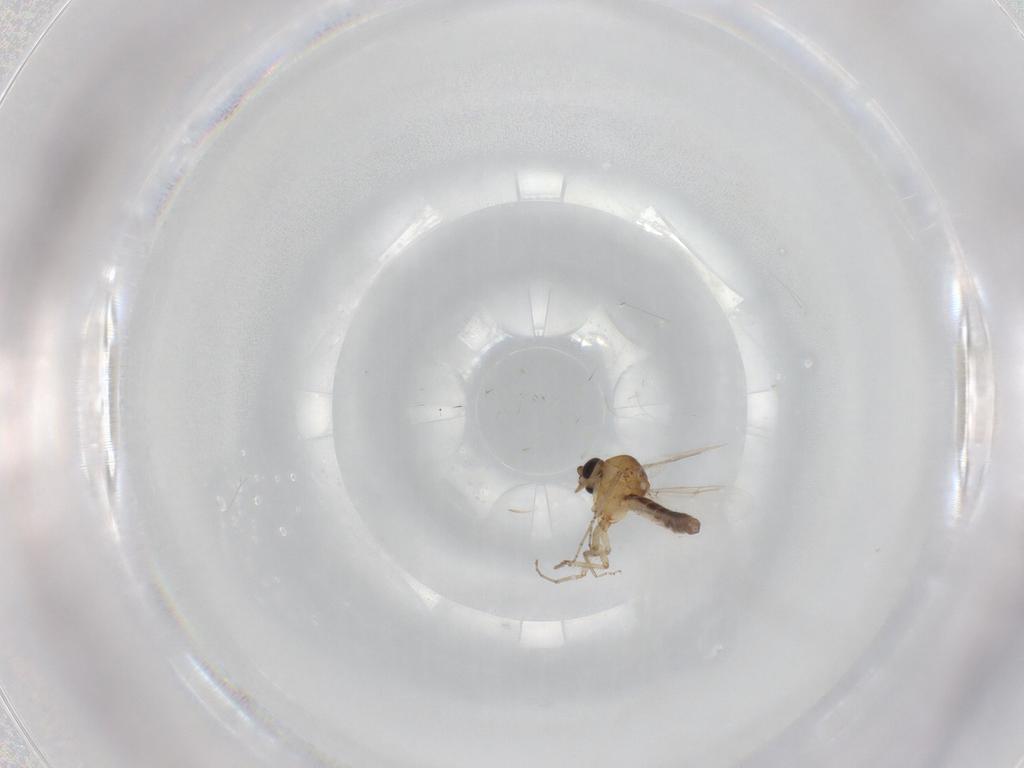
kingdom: Animalia
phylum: Arthropoda
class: Insecta
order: Diptera
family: Ceratopogonidae
